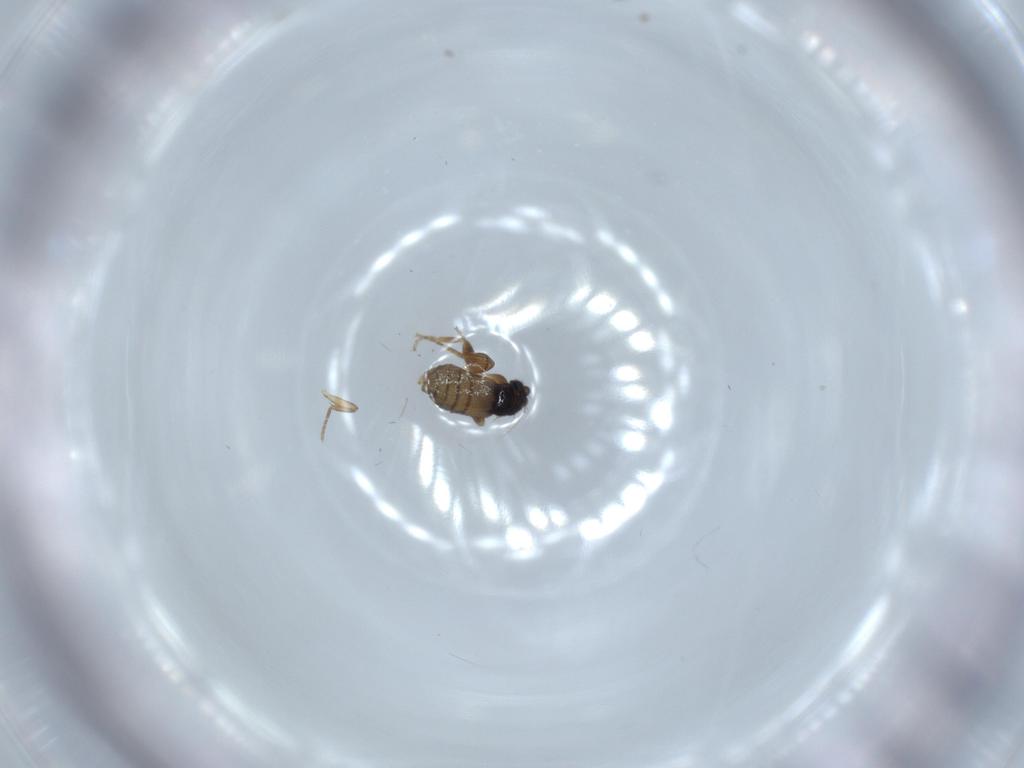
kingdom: Animalia
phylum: Arthropoda
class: Insecta
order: Diptera
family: Phoridae
